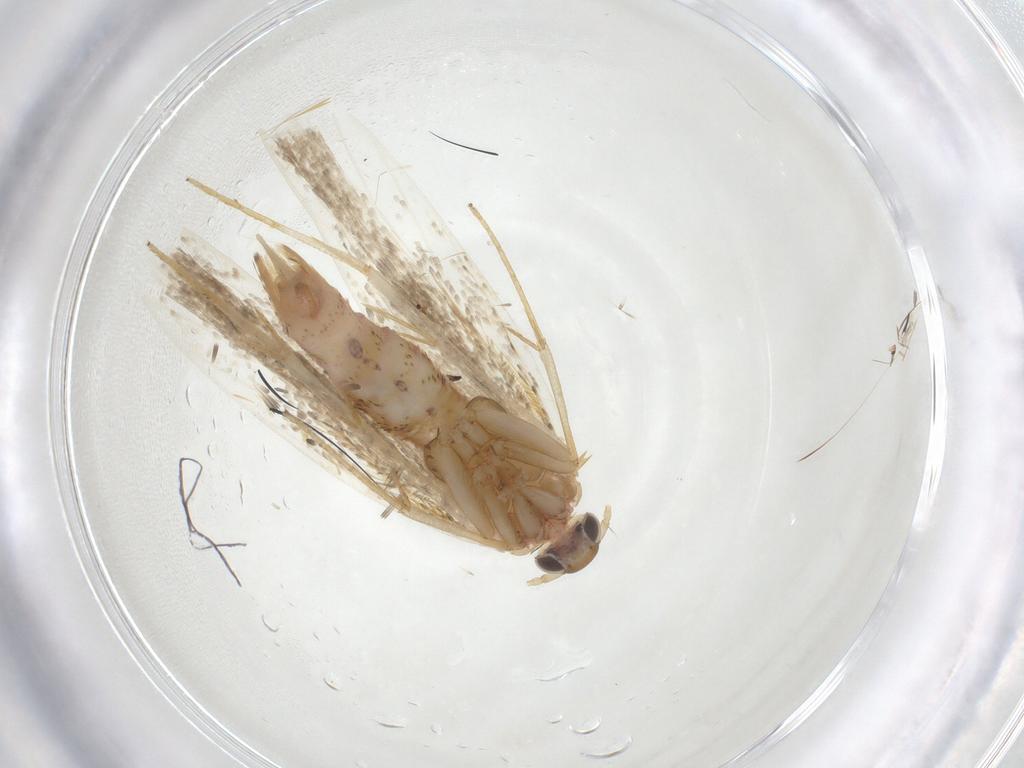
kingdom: Animalia
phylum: Arthropoda
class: Insecta
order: Lepidoptera
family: Crambidae
